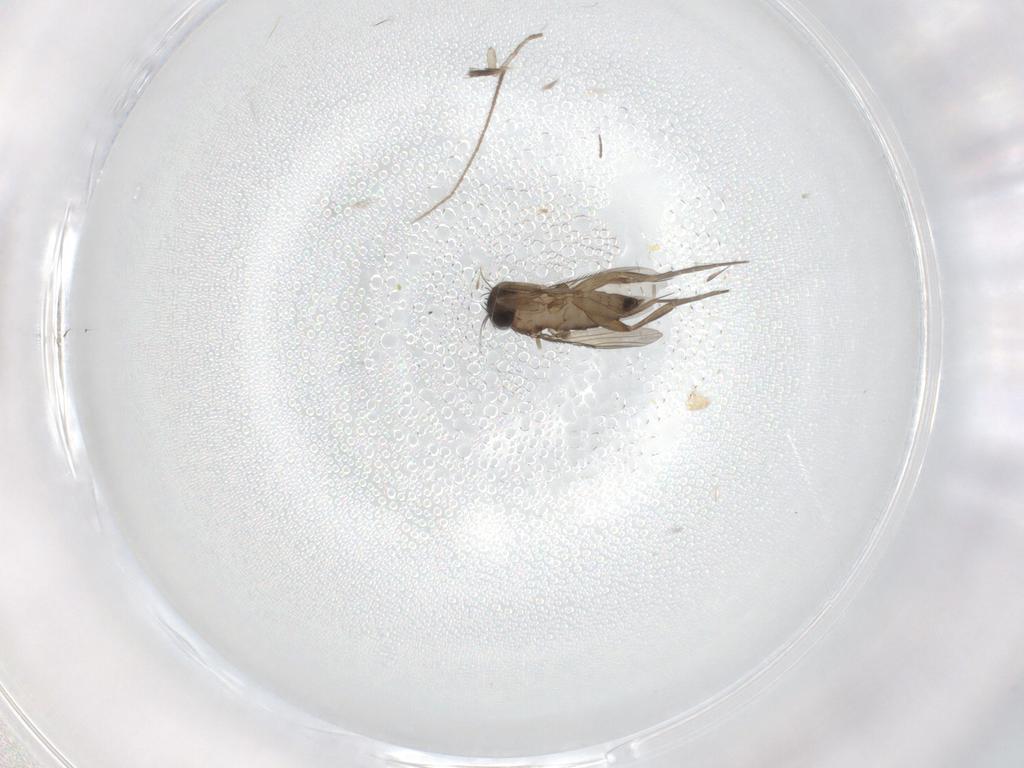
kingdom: Animalia
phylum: Arthropoda
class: Insecta
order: Diptera
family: Phoridae
